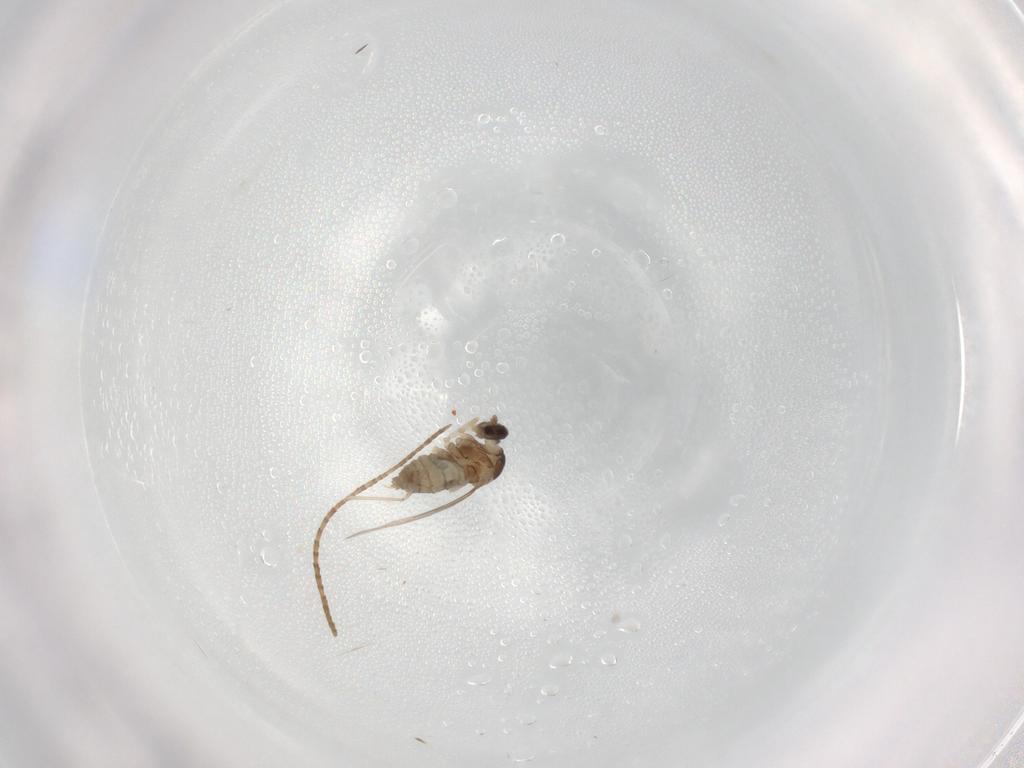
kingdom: Animalia
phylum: Arthropoda
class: Insecta
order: Diptera
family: Cecidomyiidae
